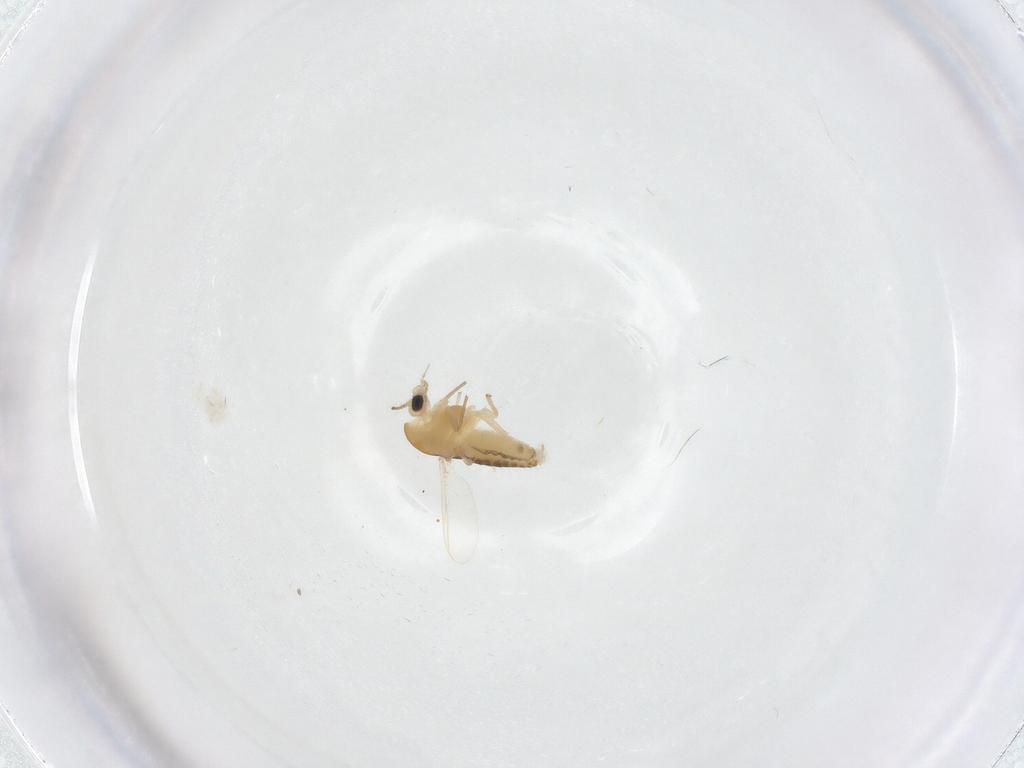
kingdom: Animalia
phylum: Arthropoda
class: Insecta
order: Diptera
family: Chironomidae
